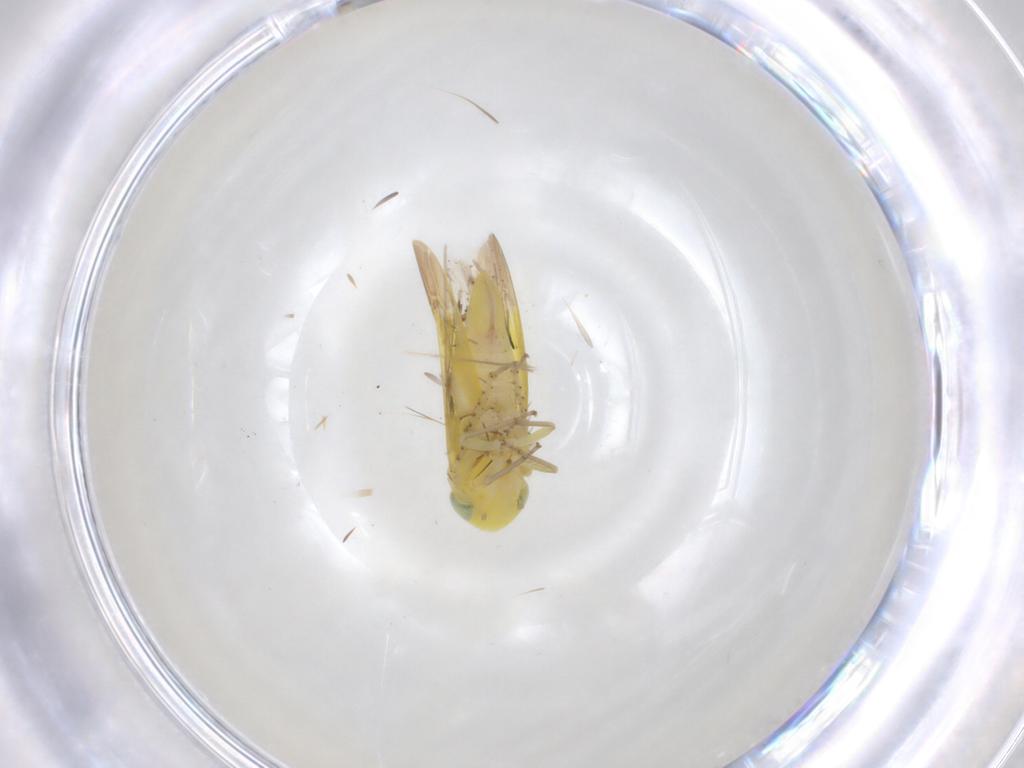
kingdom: Animalia
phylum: Arthropoda
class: Insecta
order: Hemiptera
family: Cicadellidae
